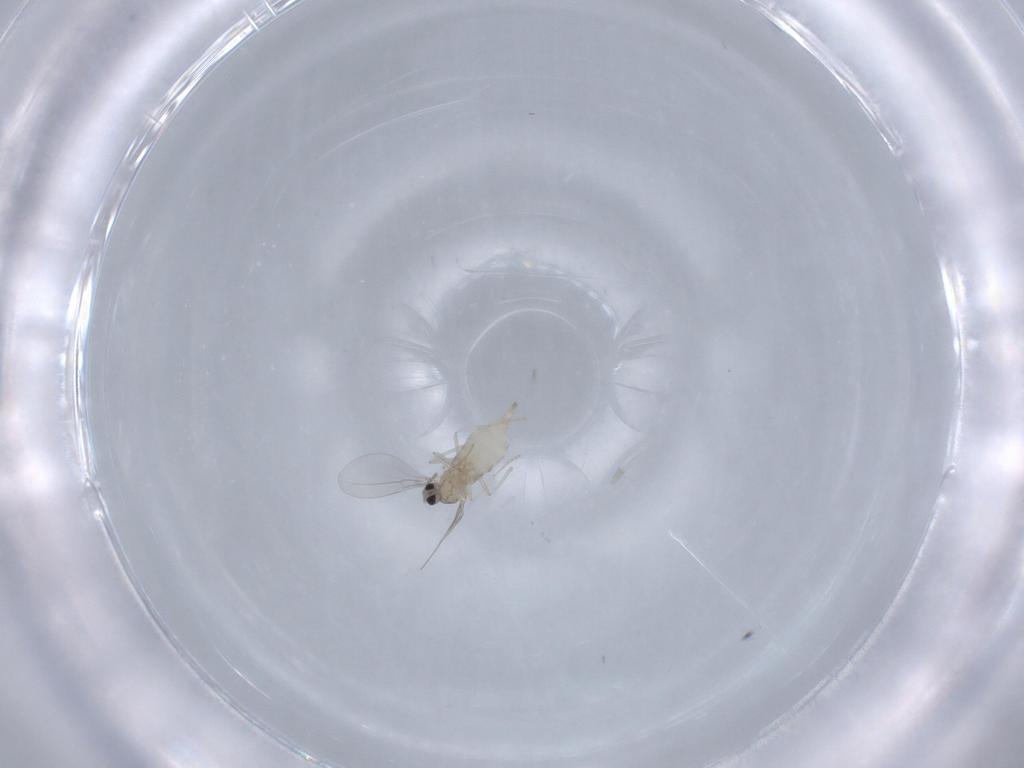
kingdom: Animalia
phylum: Arthropoda
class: Insecta
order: Diptera
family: Cecidomyiidae
